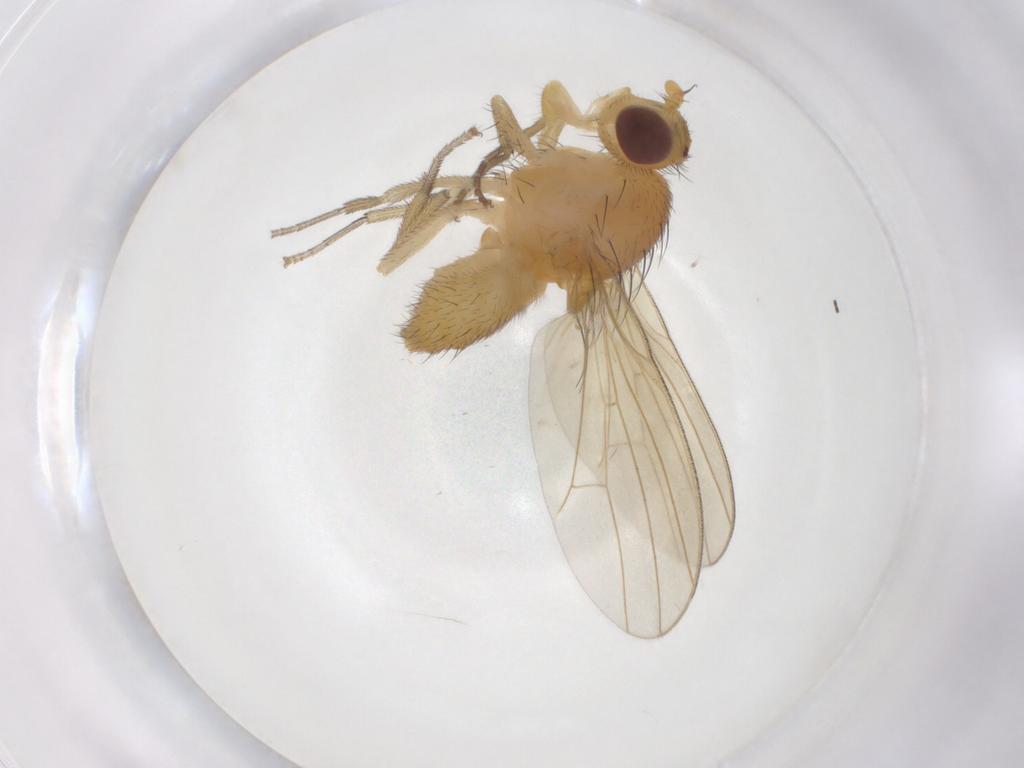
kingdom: Animalia
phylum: Arthropoda
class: Insecta
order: Diptera
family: Sciaridae
